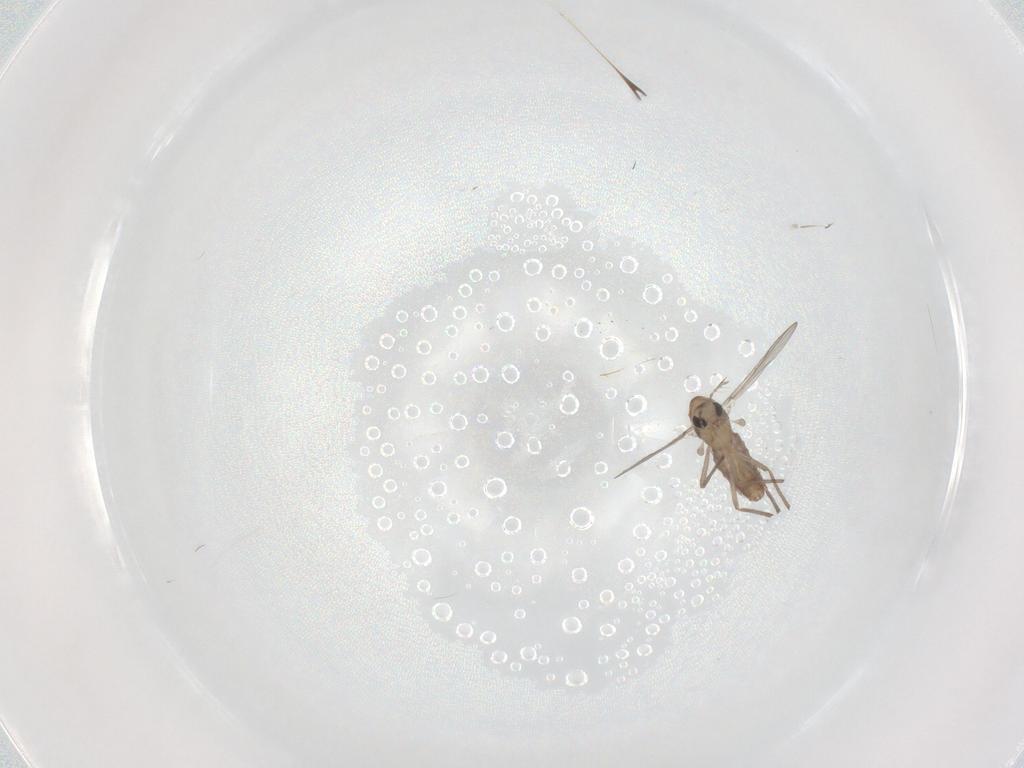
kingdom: Animalia
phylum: Arthropoda
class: Insecta
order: Diptera
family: Chironomidae
